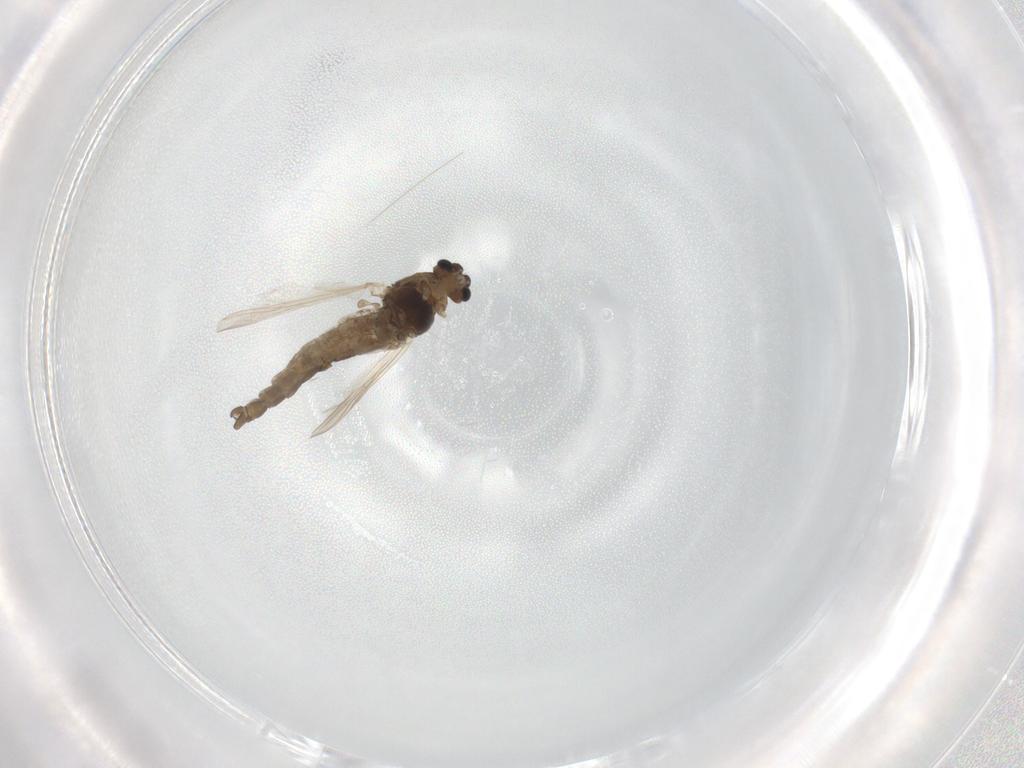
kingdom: Animalia
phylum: Arthropoda
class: Insecta
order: Diptera
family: Chironomidae
